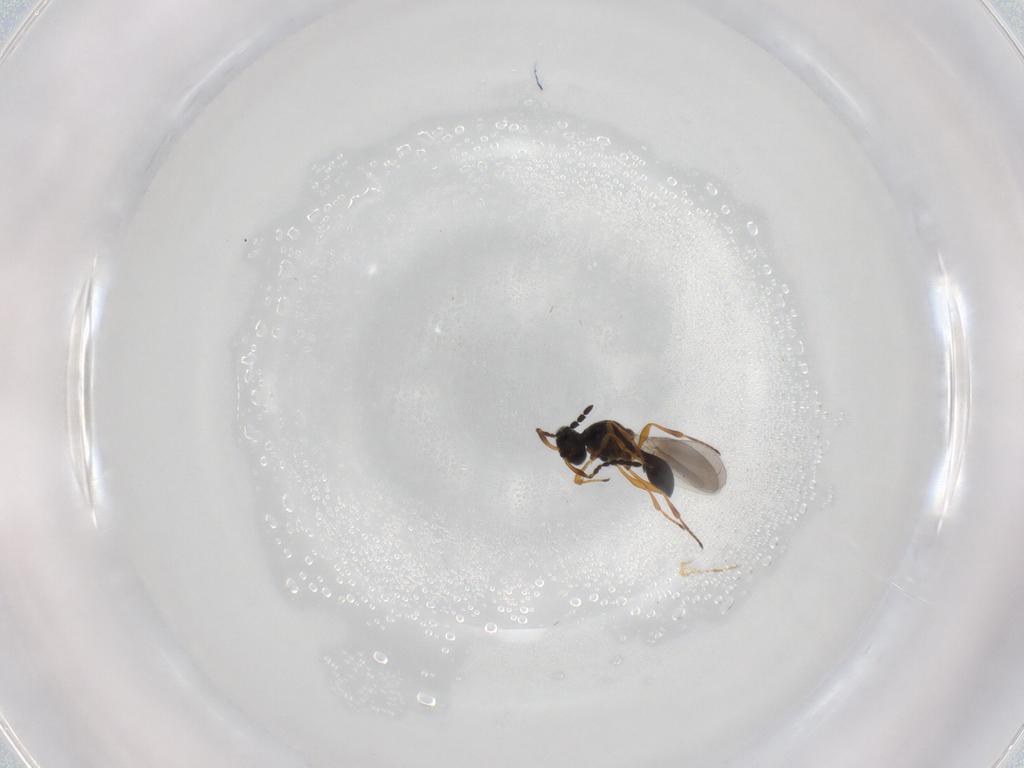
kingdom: Animalia
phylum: Arthropoda
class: Insecta
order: Hymenoptera
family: Platygastridae
